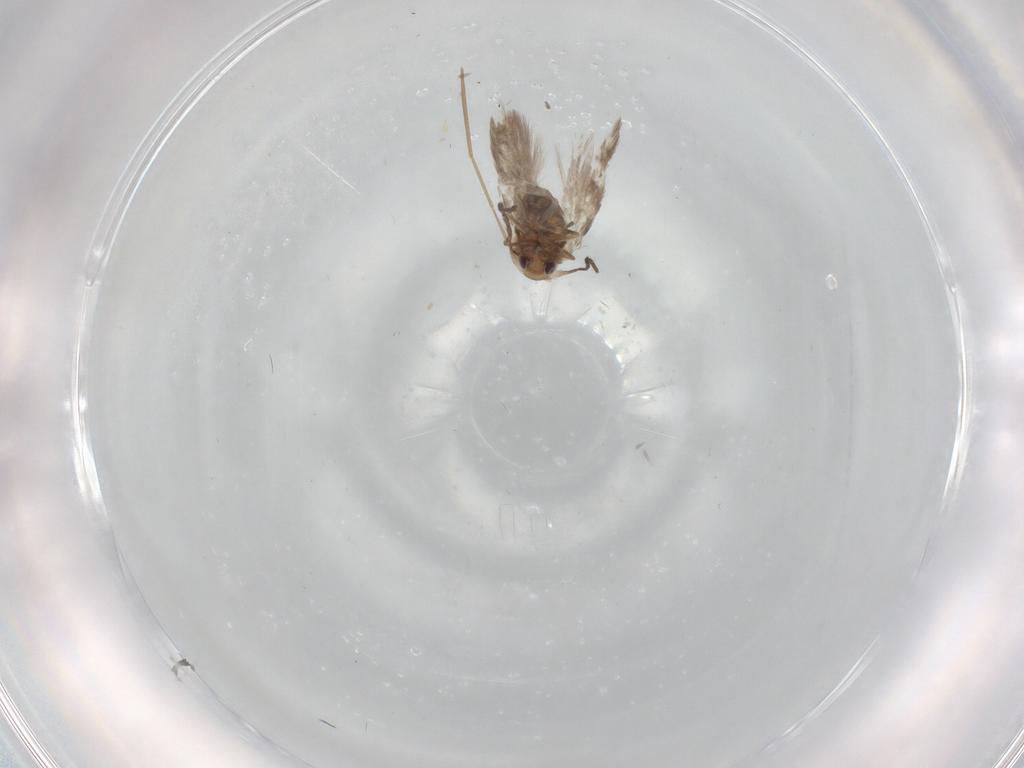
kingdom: Animalia
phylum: Arthropoda
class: Insecta
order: Lepidoptera
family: Nymphalidae
